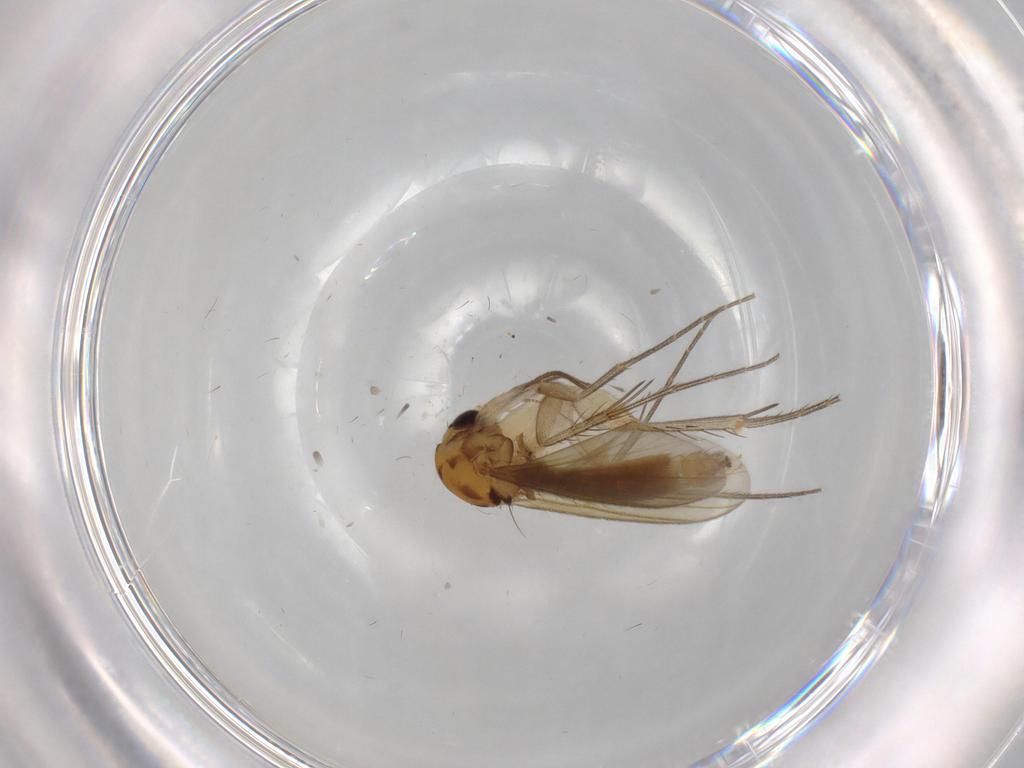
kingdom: Animalia
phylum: Arthropoda
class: Insecta
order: Diptera
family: Mycetophilidae
